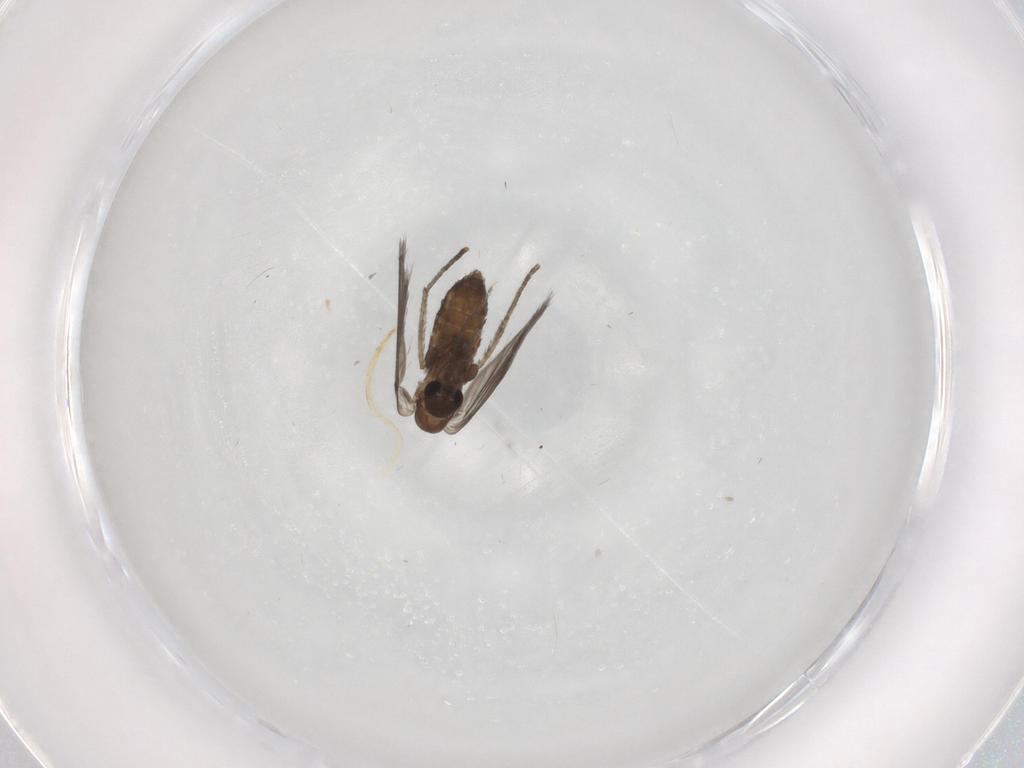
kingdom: Animalia
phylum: Arthropoda
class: Insecta
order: Diptera
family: Psychodidae
